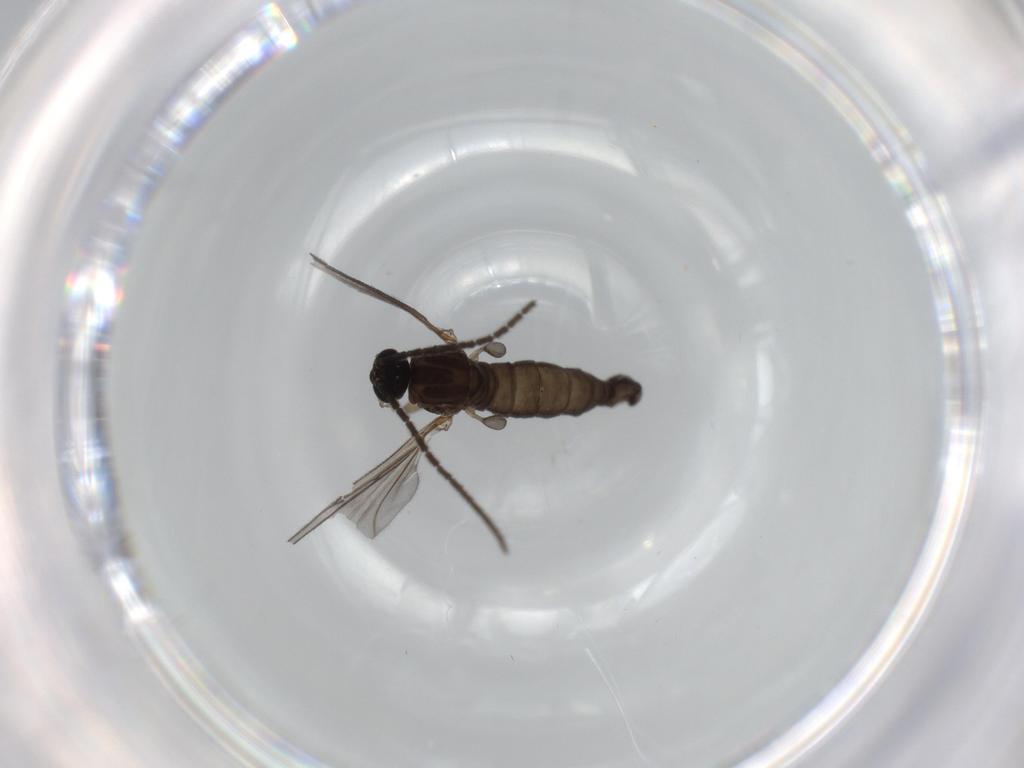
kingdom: Animalia
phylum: Arthropoda
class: Insecta
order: Diptera
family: Sciaridae
